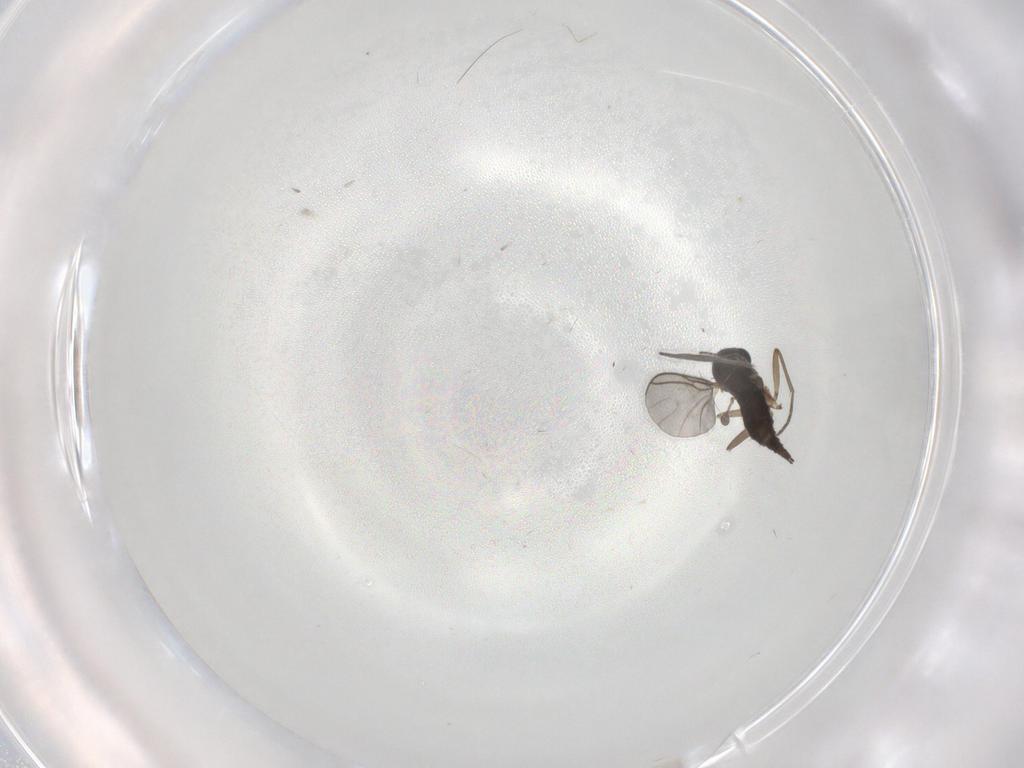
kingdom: Animalia
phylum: Arthropoda
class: Insecta
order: Diptera
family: Sciaridae
